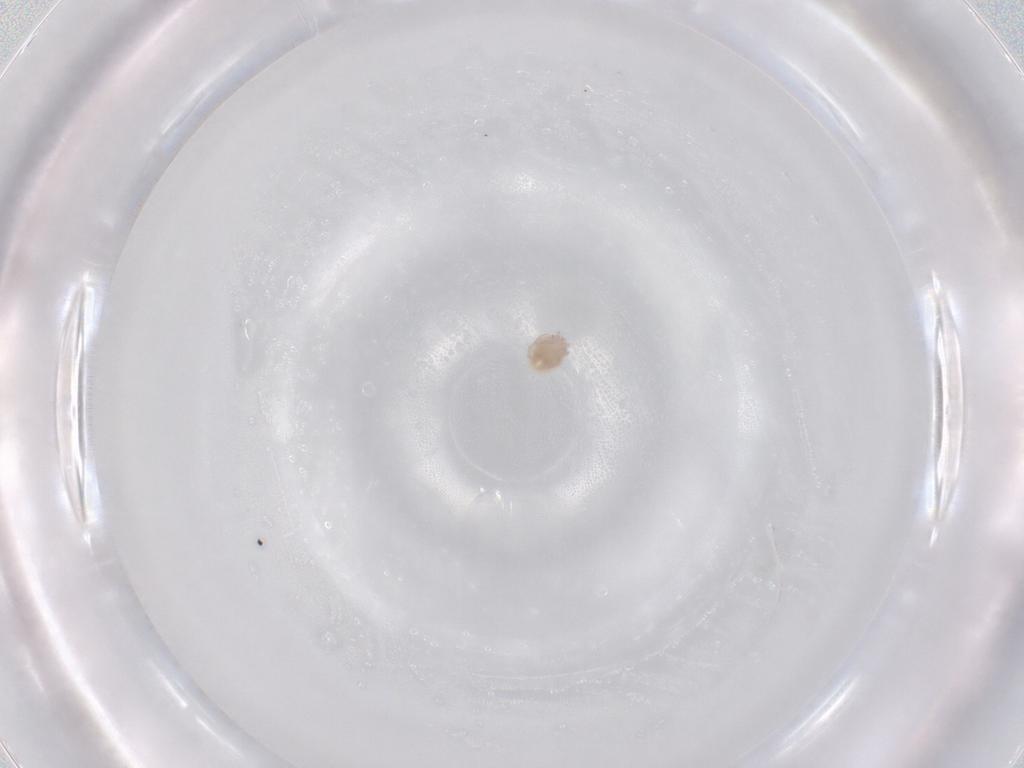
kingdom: Animalia
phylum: Arthropoda
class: Arachnida
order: Trombidiformes
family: Lebertiidae
